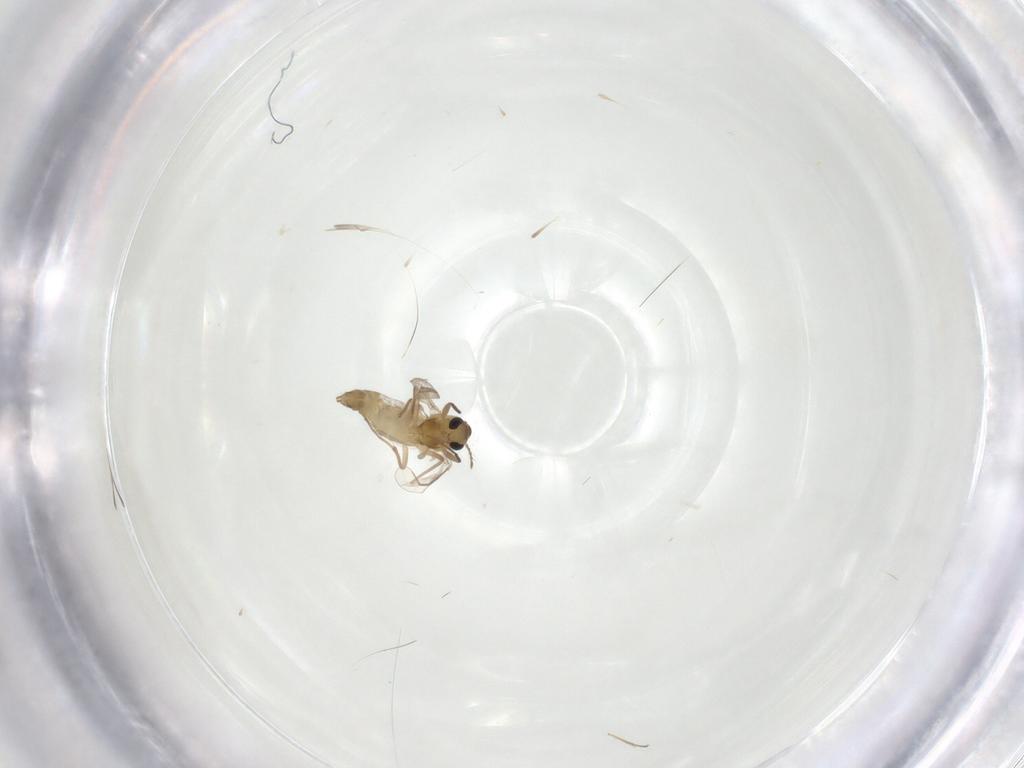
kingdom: Animalia
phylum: Arthropoda
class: Insecta
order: Diptera
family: Chironomidae
